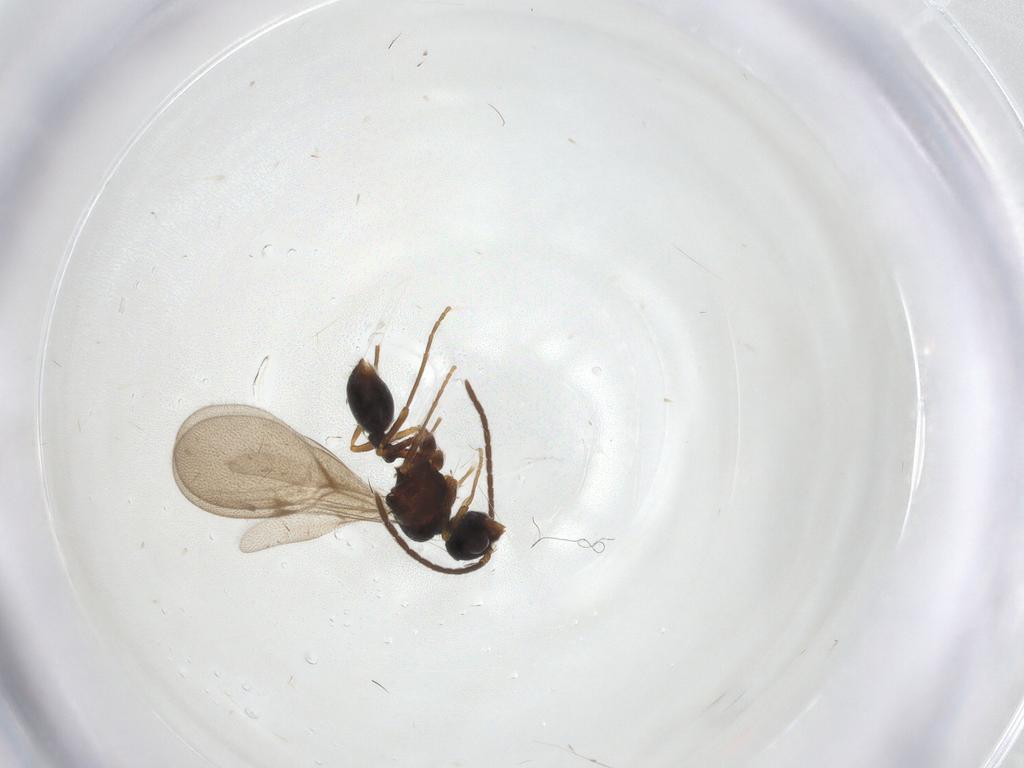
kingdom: Animalia
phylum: Arthropoda
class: Insecta
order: Hymenoptera
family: Formicidae
